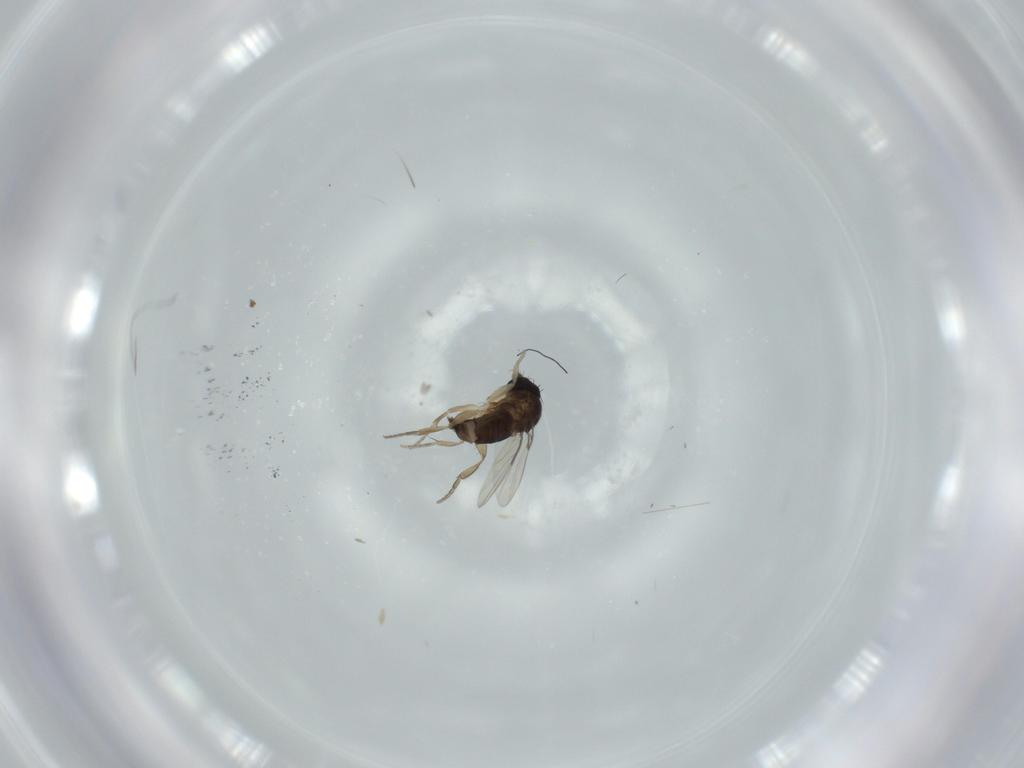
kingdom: Animalia
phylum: Arthropoda
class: Insecta
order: Diptera
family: Phoridae
